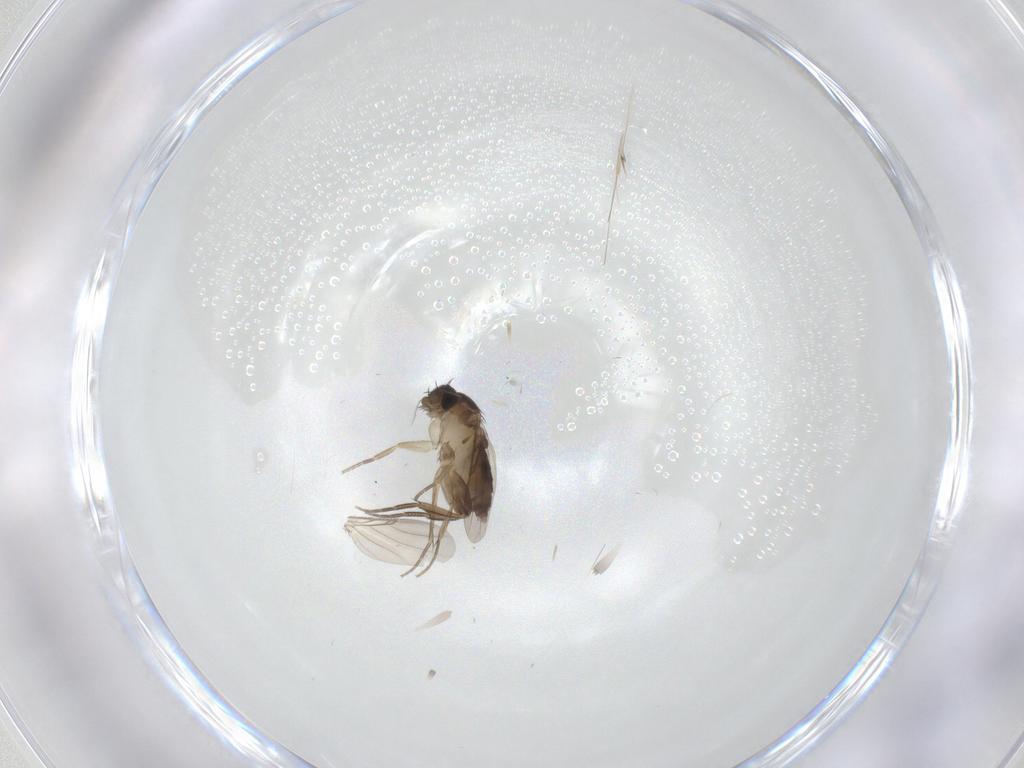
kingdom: Animalia
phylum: Arthropoda
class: Insecta
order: Diptera
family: Phoridae
